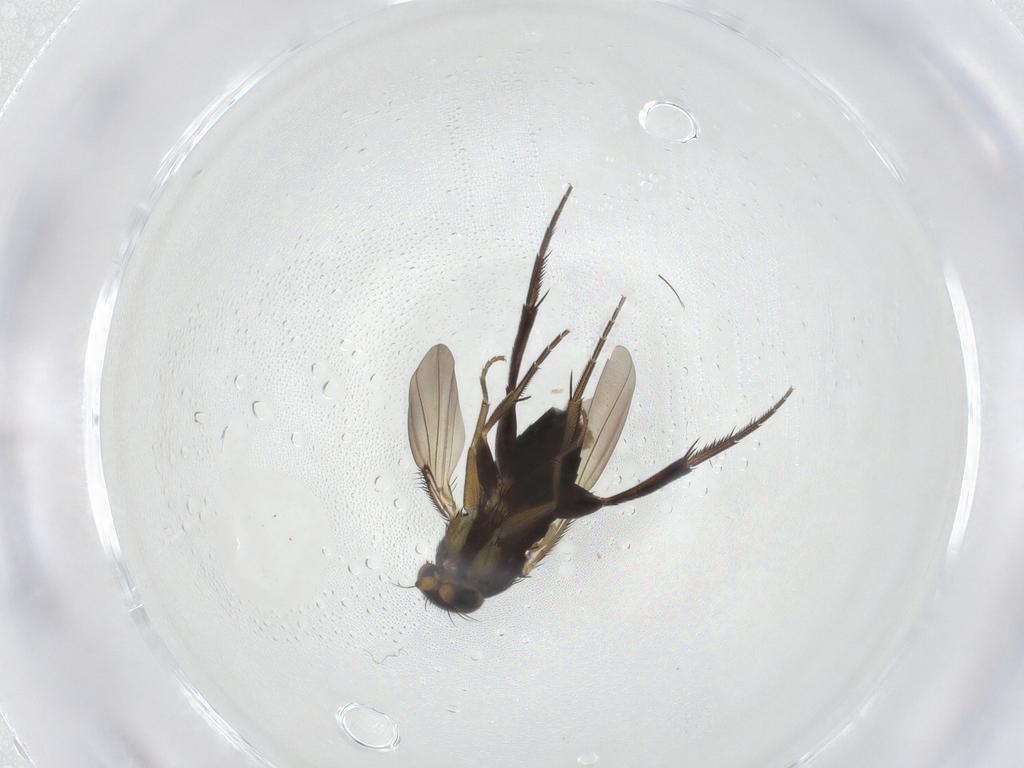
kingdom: Animalia
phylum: Arthropoda
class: Insecta
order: Diptera
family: Phoridae
